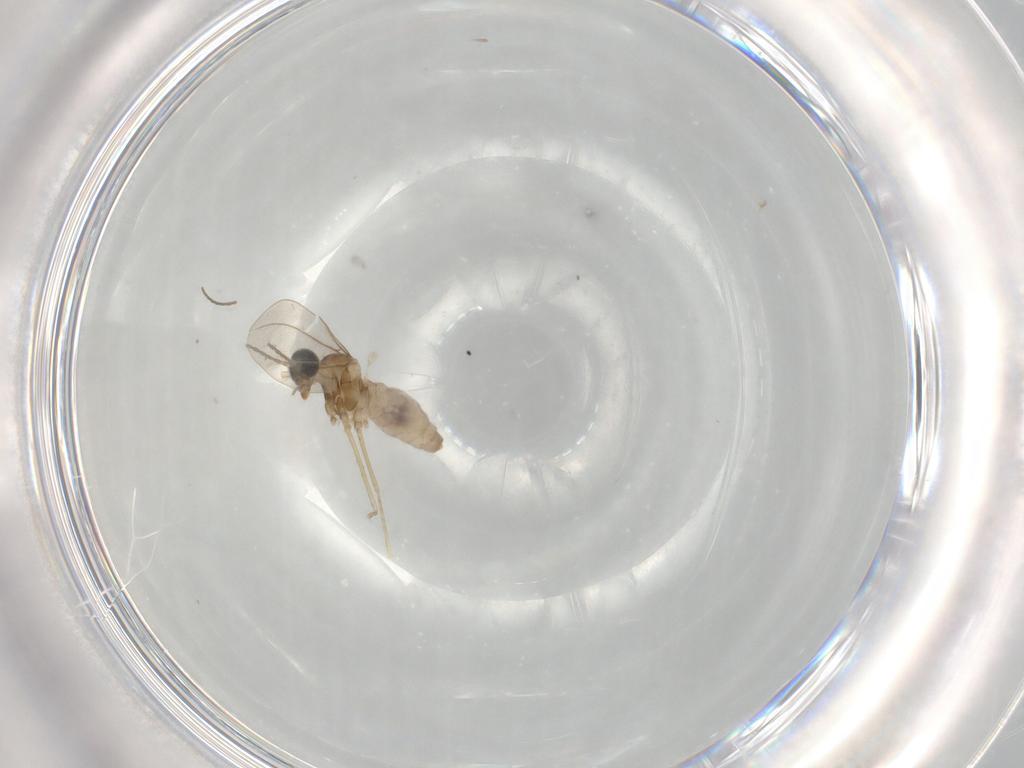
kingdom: Animalia
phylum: Arthropoda
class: Insecta
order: Diptera
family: Cecidomyiidae
